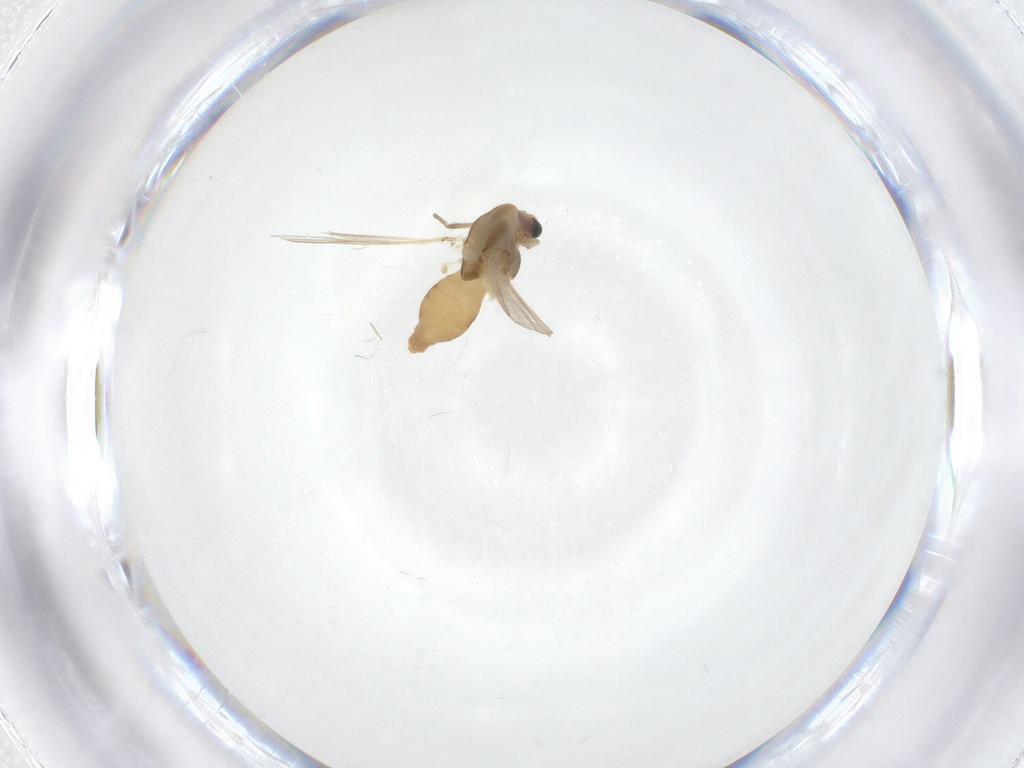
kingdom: Animalia
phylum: Arthropoda
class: Insecta
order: Diptera
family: Chironomidae
